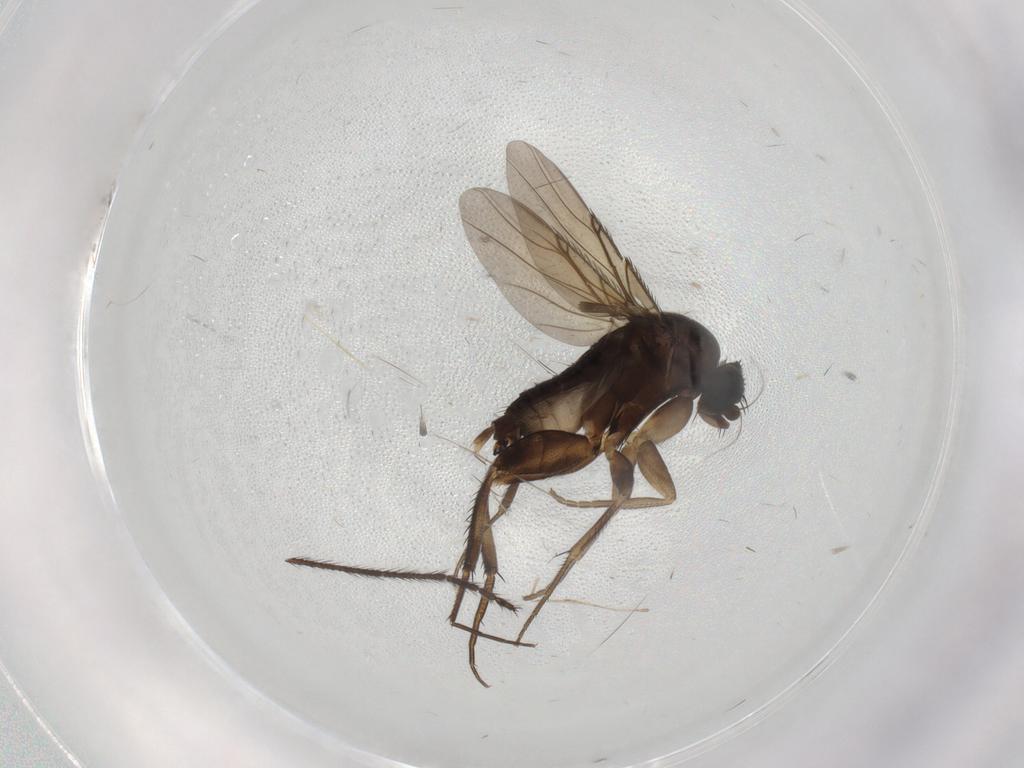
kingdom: Animalia
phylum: Arthropoda
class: Insecta
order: Diptera
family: Phoridae
